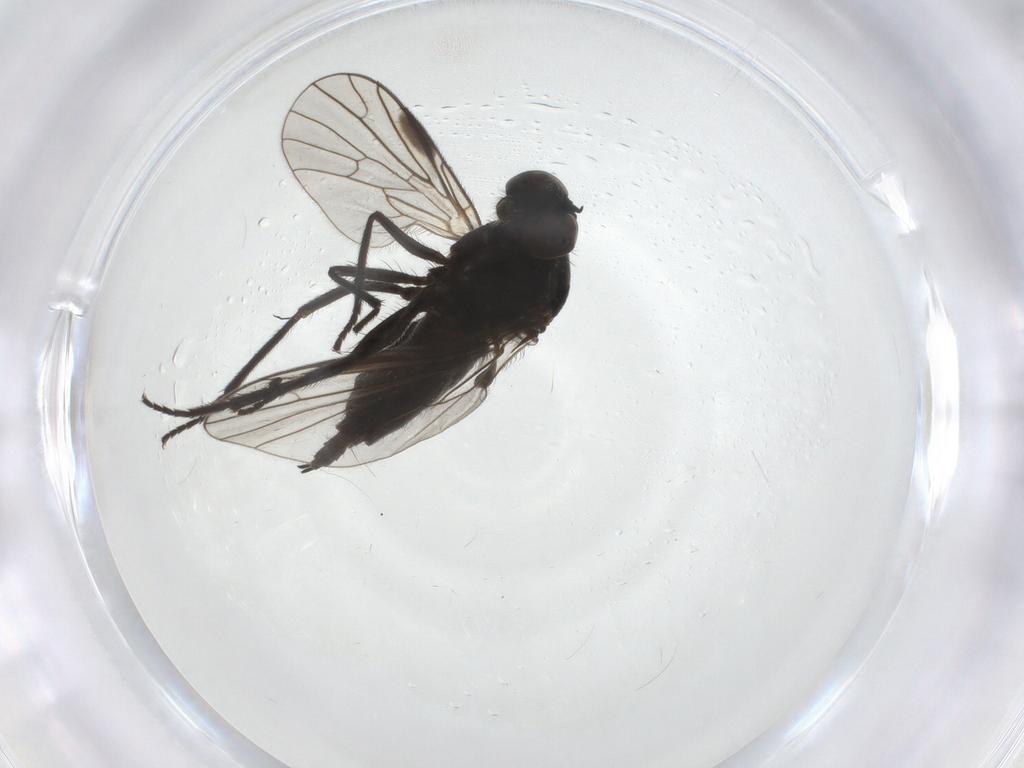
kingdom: Animalia
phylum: Arthropoda
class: Insecta
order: Diptera
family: Empididae
